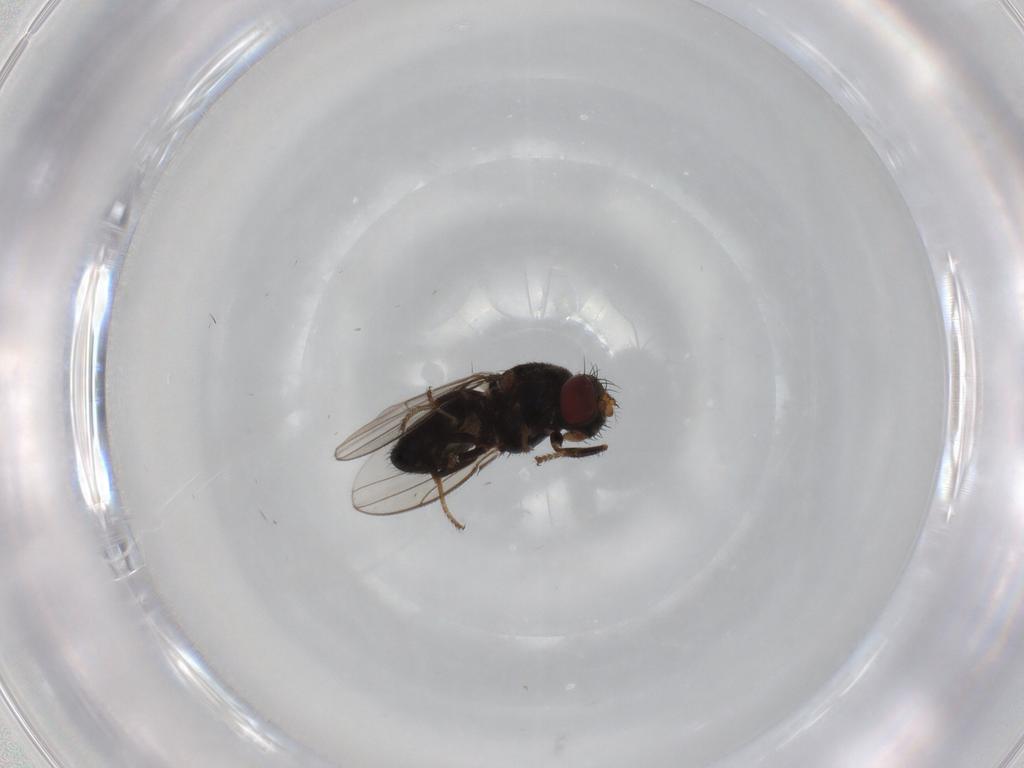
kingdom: Animalia
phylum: Arthropoda
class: Insecta
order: Diptera
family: Ephydridae
